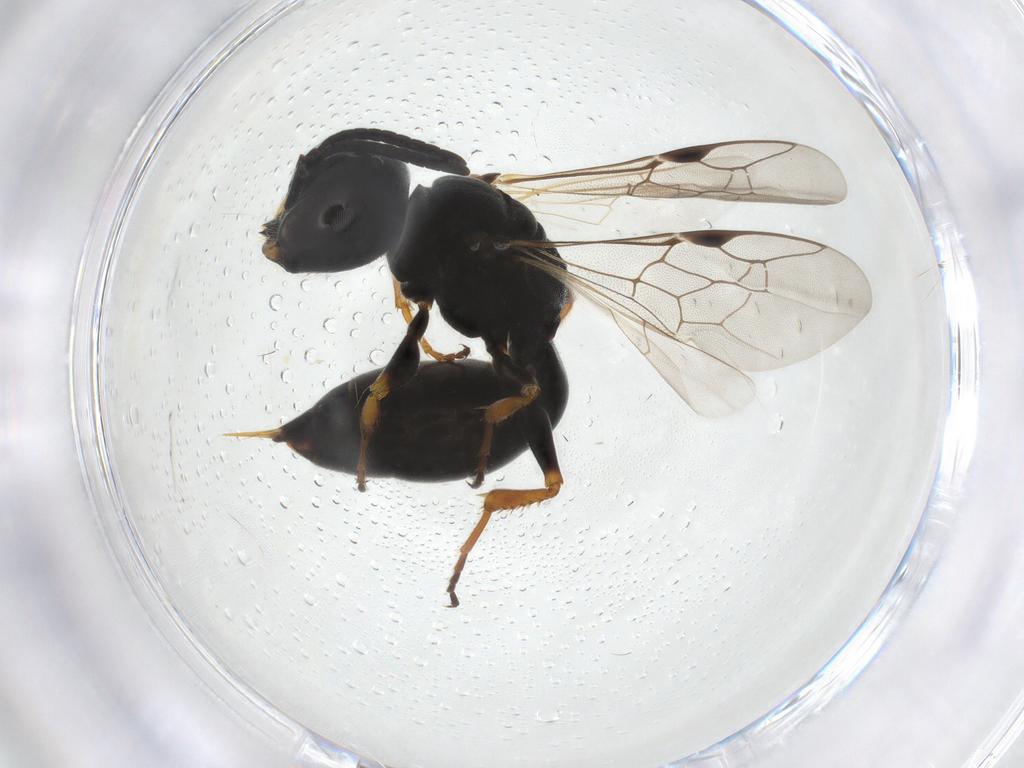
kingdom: Animalia
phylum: Arthropoda
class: Insecta
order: Hymenoptera
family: Pemphredonidae
